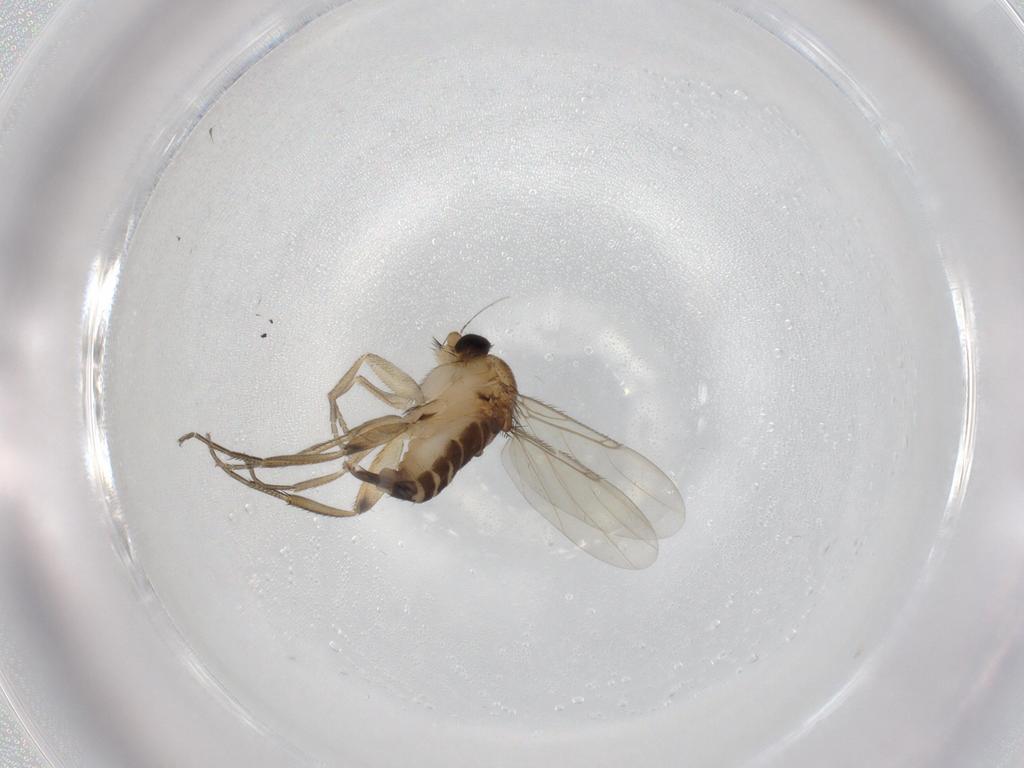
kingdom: Animalia
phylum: Arthropoda
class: Insecta
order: Diptera
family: Phoridae
